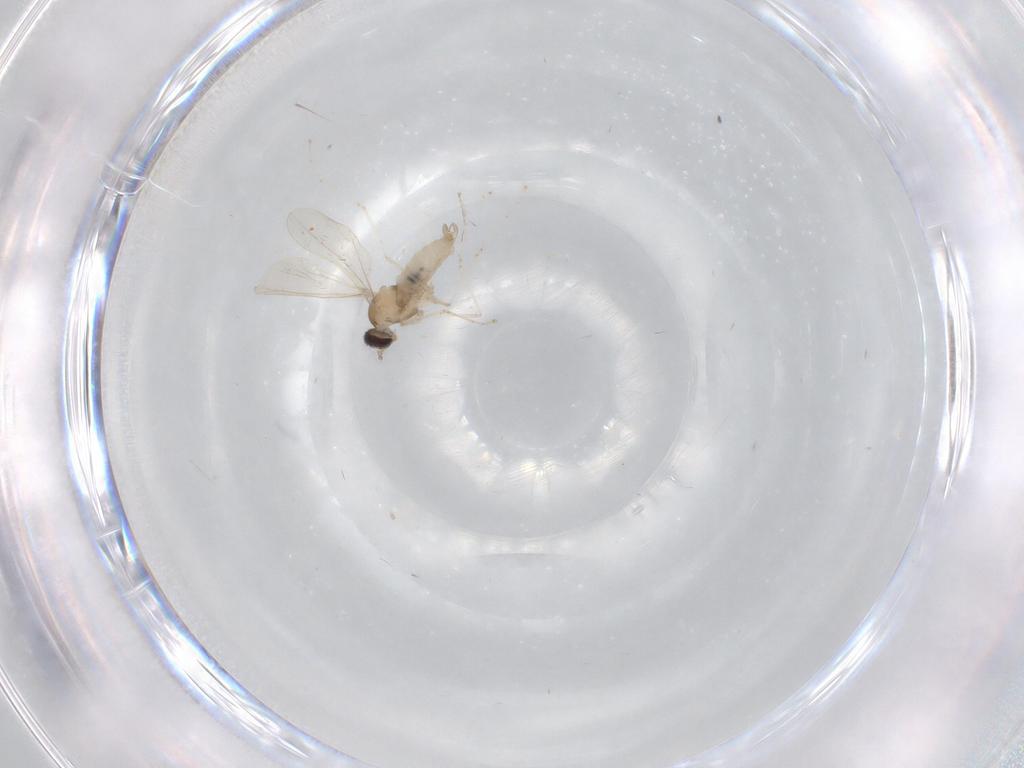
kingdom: Animalia
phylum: Arthropoda
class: Insecta
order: Diptera
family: Cecidomyiidae
